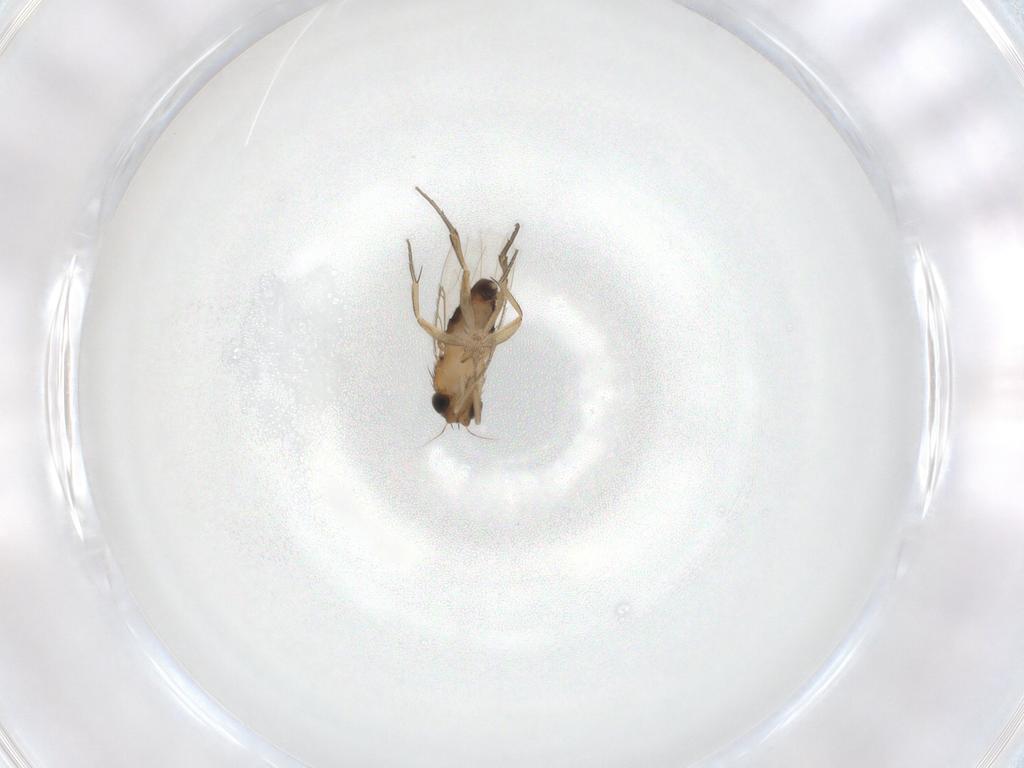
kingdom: Animalia
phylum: Arthropoda
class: Insecta
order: Diptera
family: Phoridae
